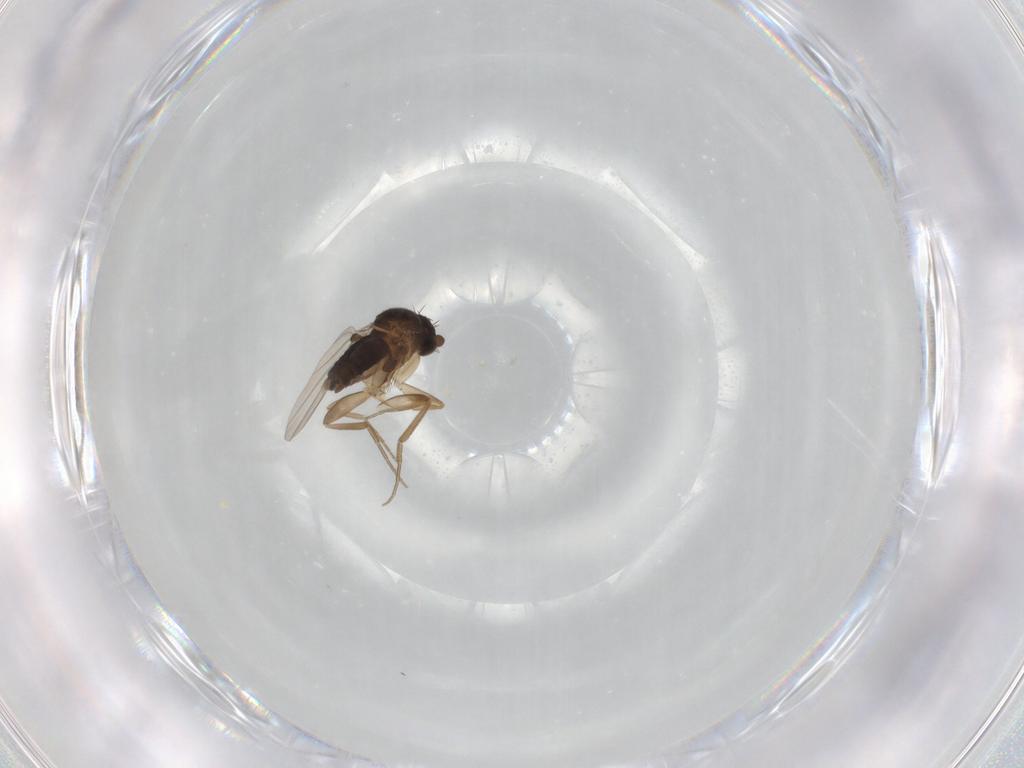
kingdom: Animalia
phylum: Arthropoda
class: Insecta
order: Diptera
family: Phoridae
